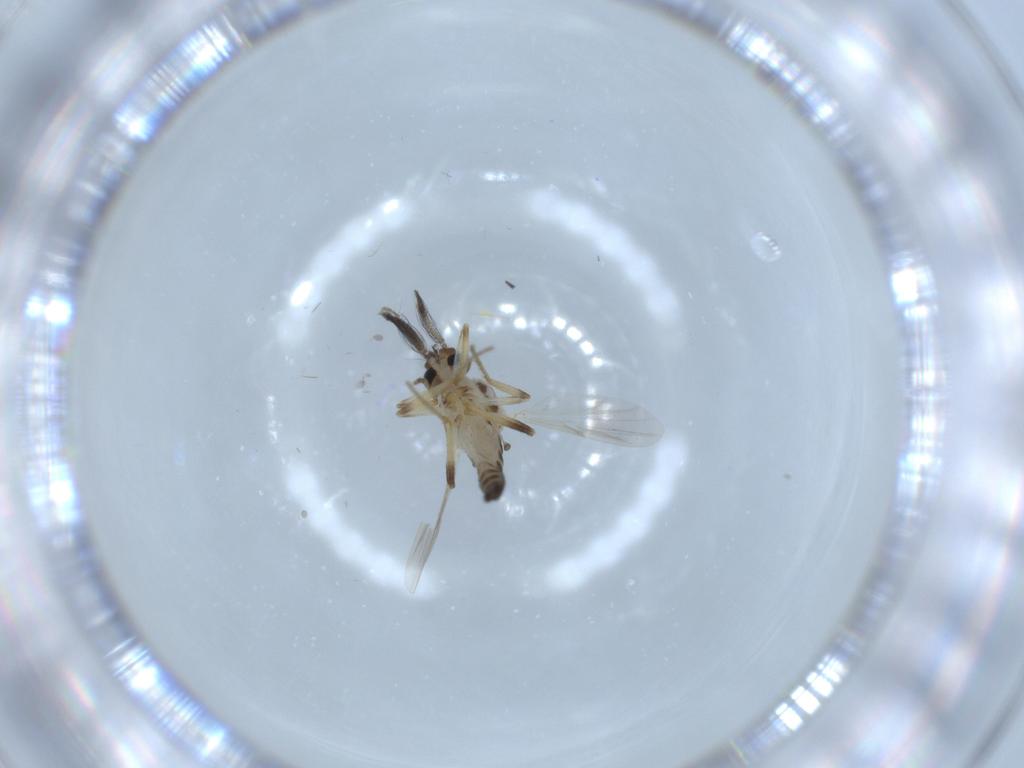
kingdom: Animalia
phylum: Arthropoda
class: Insecta
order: Diptera
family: Ceratopogonidae
